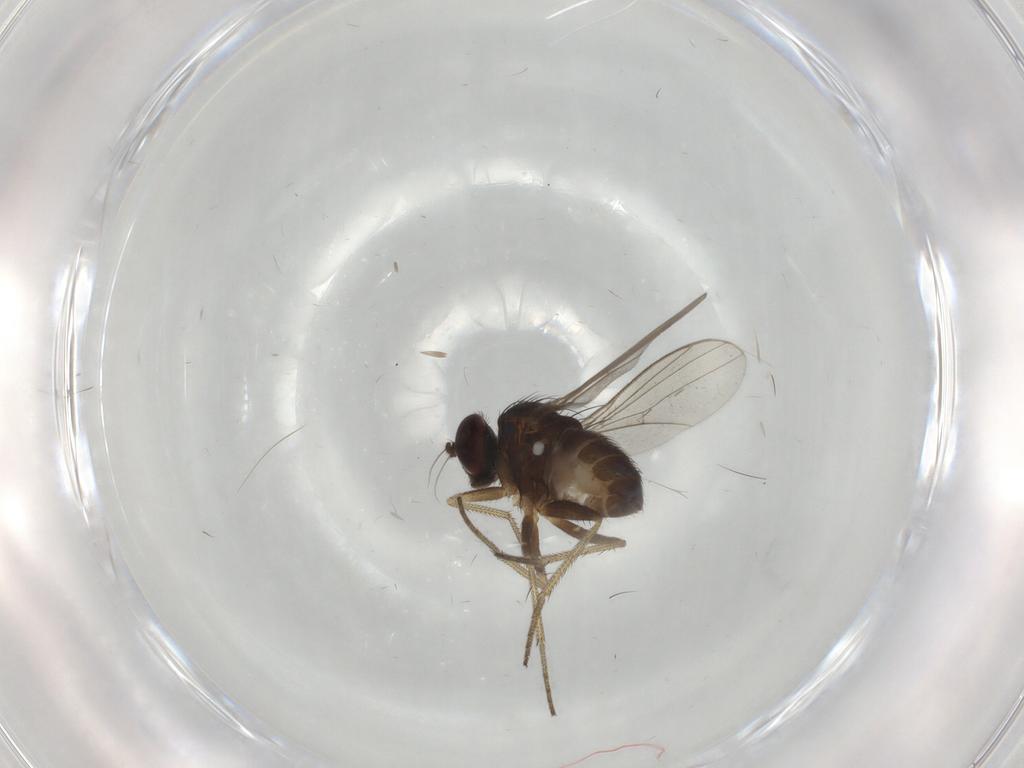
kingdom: Animalia
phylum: Arthropoda
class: Insecta
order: Diptera
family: Dolichopodidae
